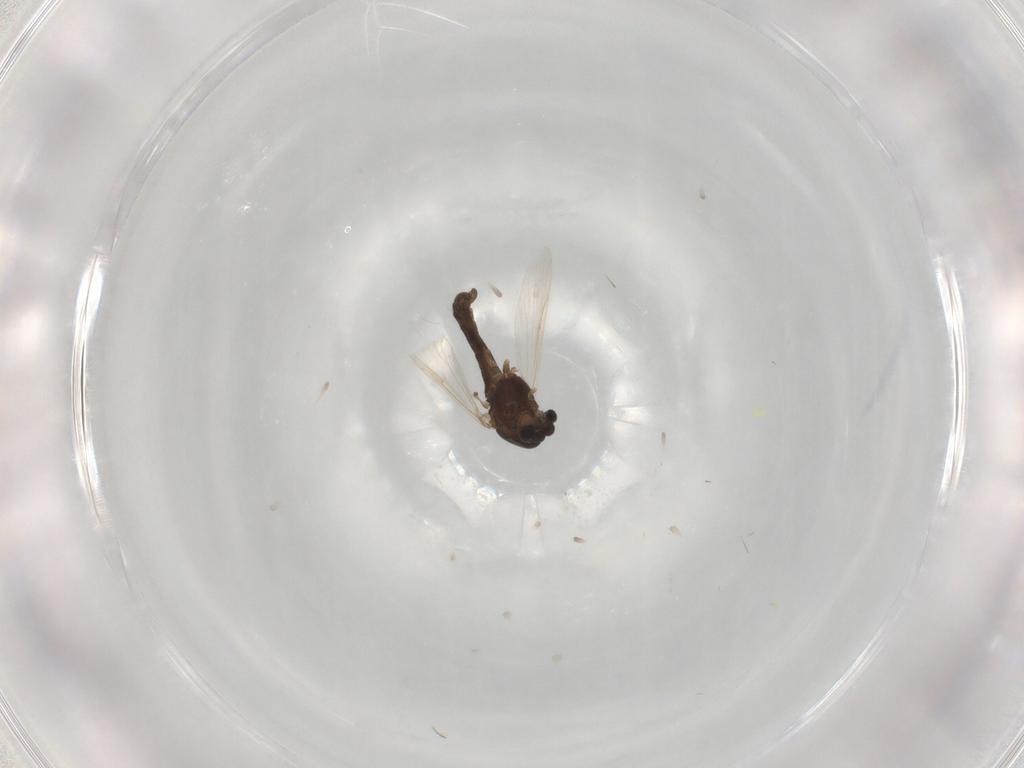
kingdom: Animalia
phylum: Arthropoda
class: Insecta
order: Diptera
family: Chironomidae
